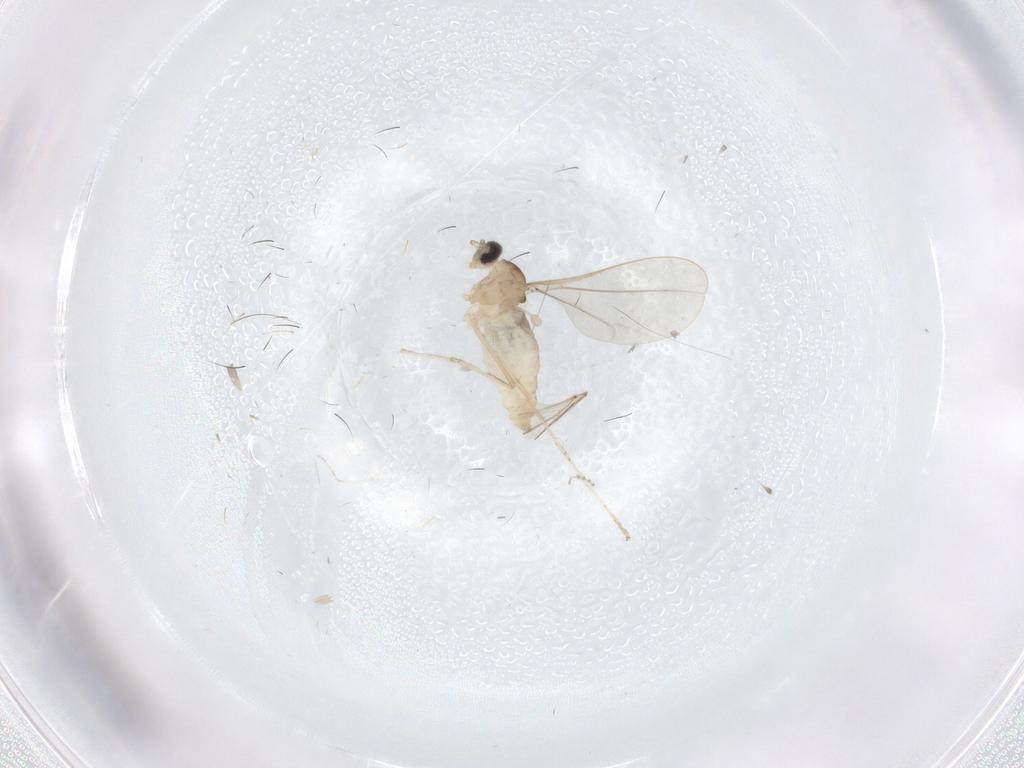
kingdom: Animalia
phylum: Arthropoda
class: Insecta
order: Diptera
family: Cecidomyiidae
